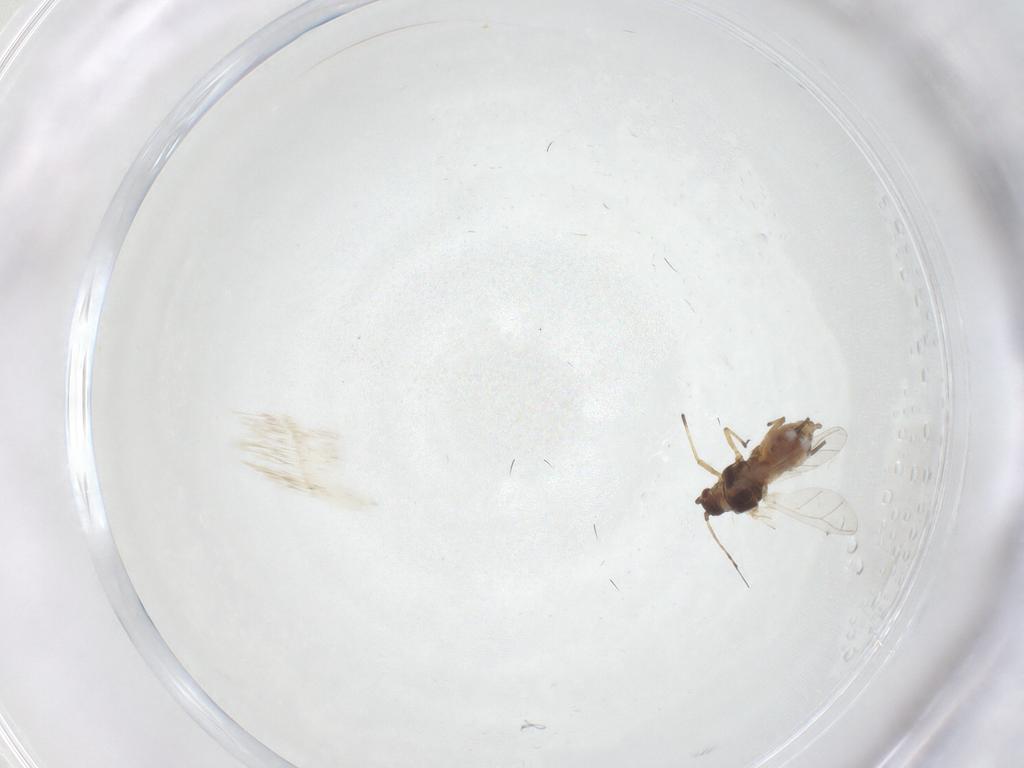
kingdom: Animalia
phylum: Arthropoda
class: Insecta
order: Hemiptera
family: Aphididae
